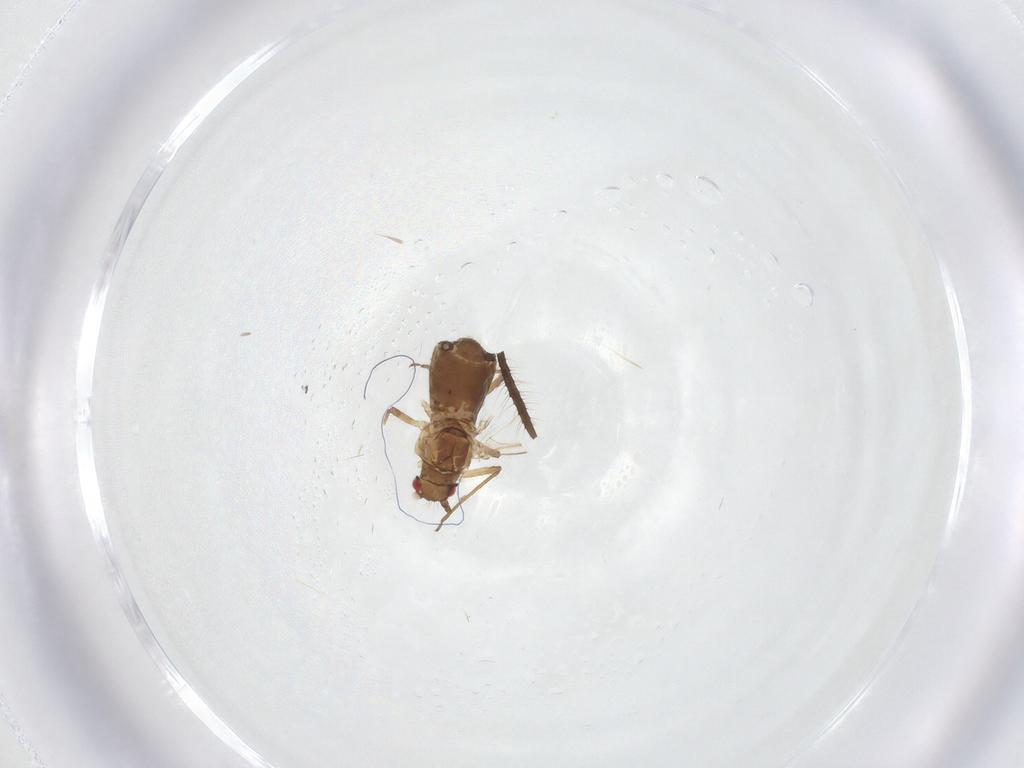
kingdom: Animalia
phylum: Arthropoda
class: Insecta
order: Hemiptera
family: Aphididae
